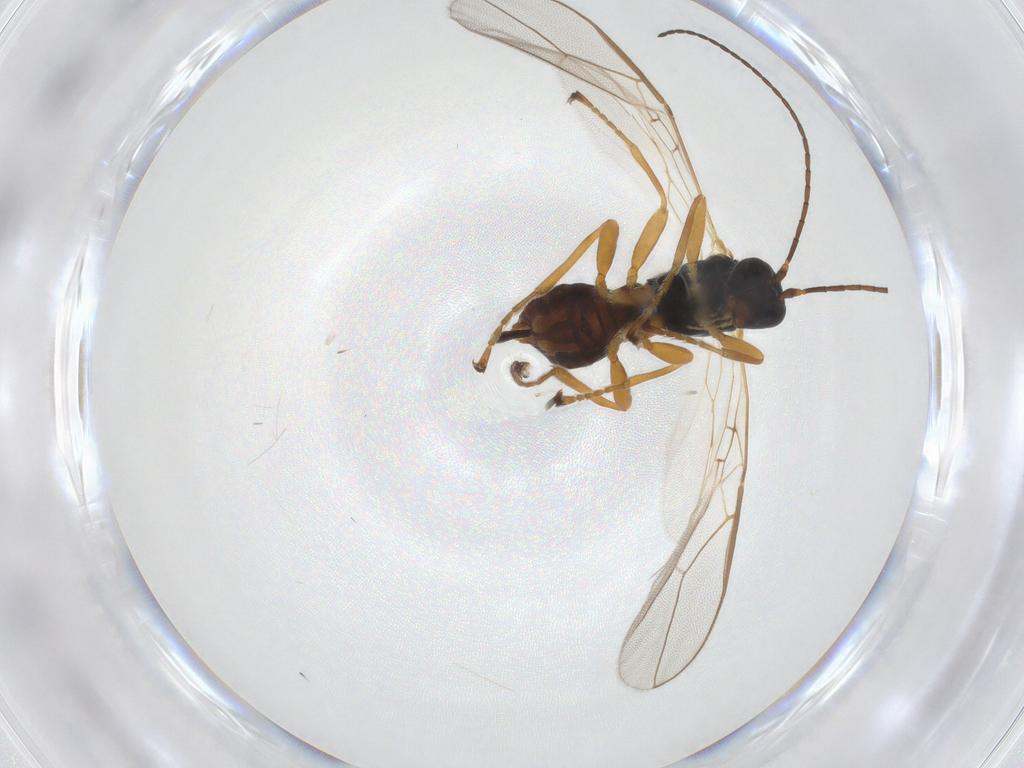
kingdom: Animalia
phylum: Arthropoda
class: Insecta
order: Hymenoptera
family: Braconidae
